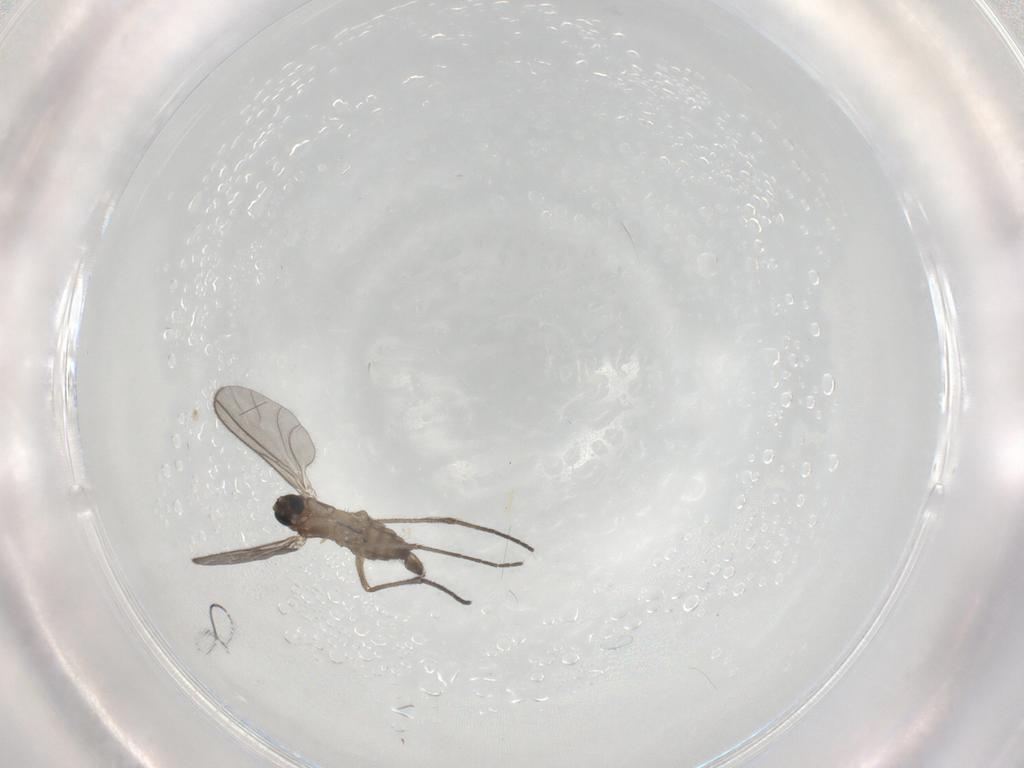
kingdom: Animalia
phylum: Arthropoda
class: Insecta
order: Diptera
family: Sciaridae
